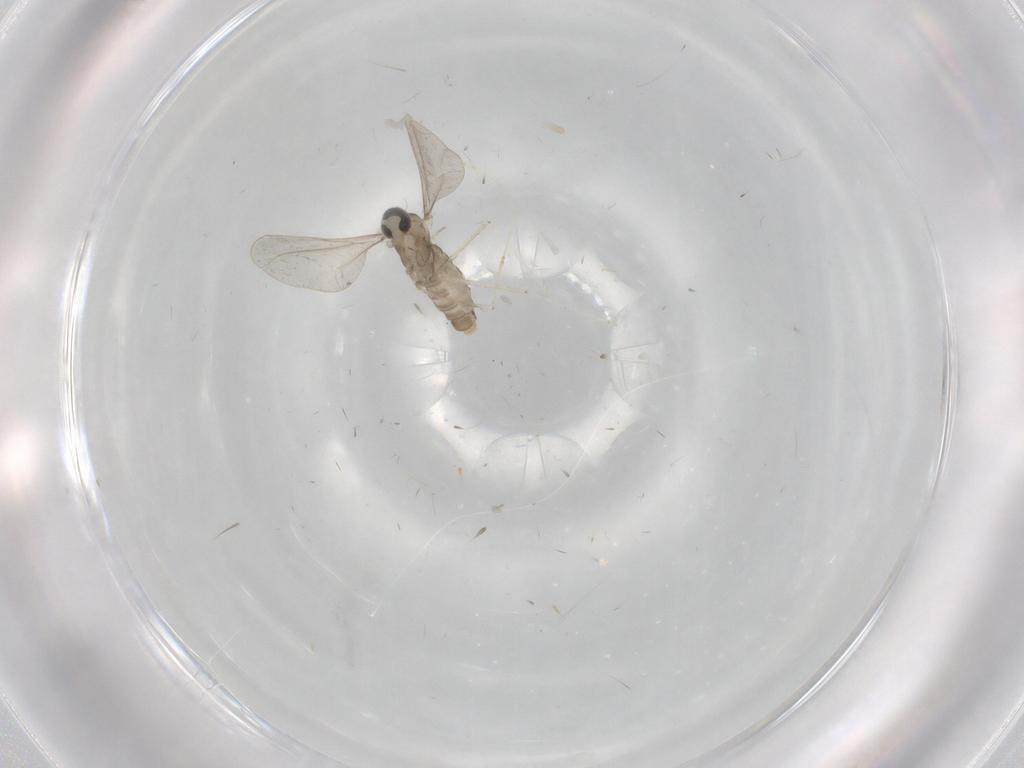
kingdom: Animalia
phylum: Arthropoda
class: Insecta
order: Diptera
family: Cecidomyiidae
